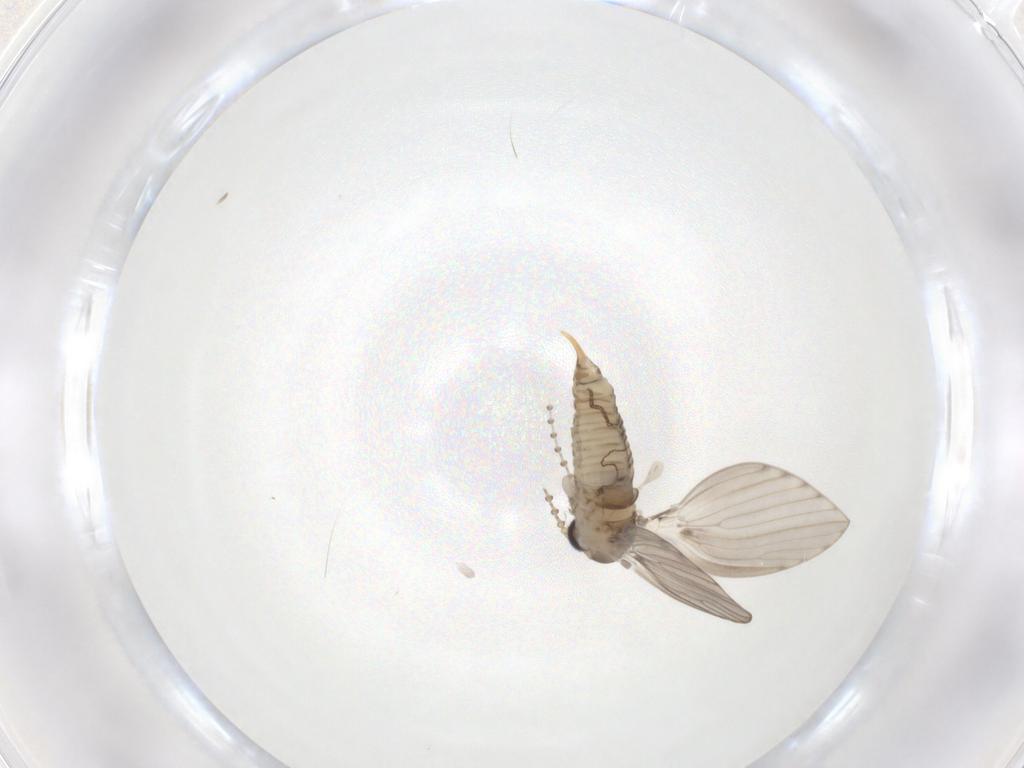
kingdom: Animalia
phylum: Arthropoda
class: Insecta
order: Diptera
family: Psychodidae
